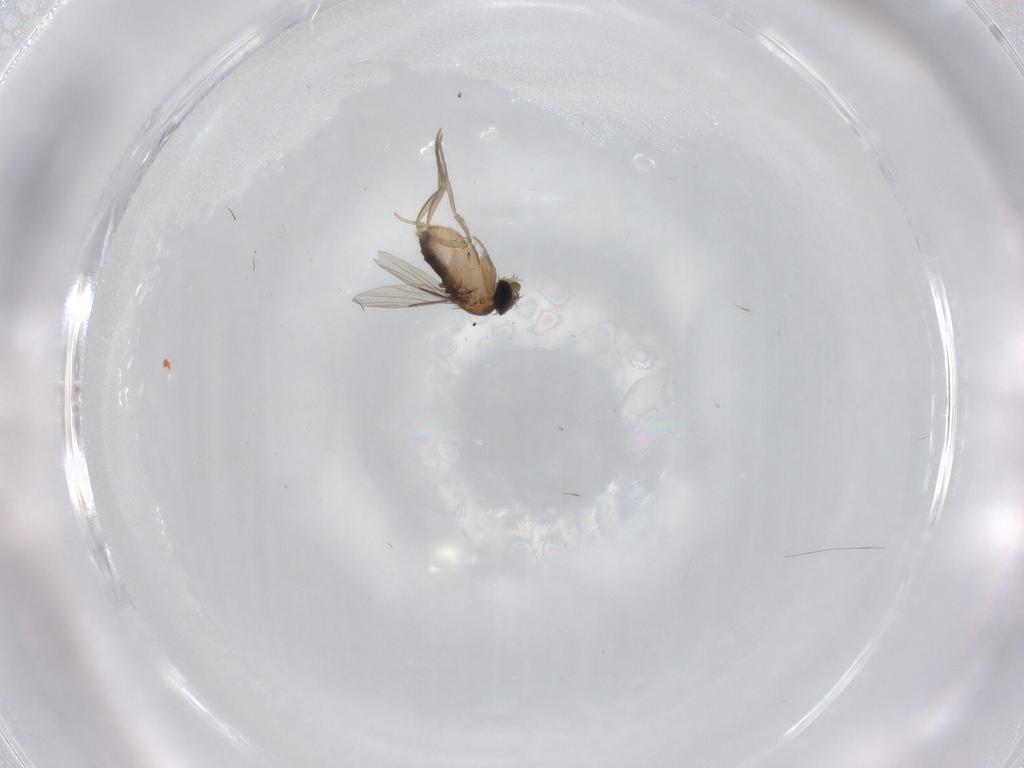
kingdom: Animalia
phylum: Arthropoda
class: Insecta
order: Diptera
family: Phoridae
